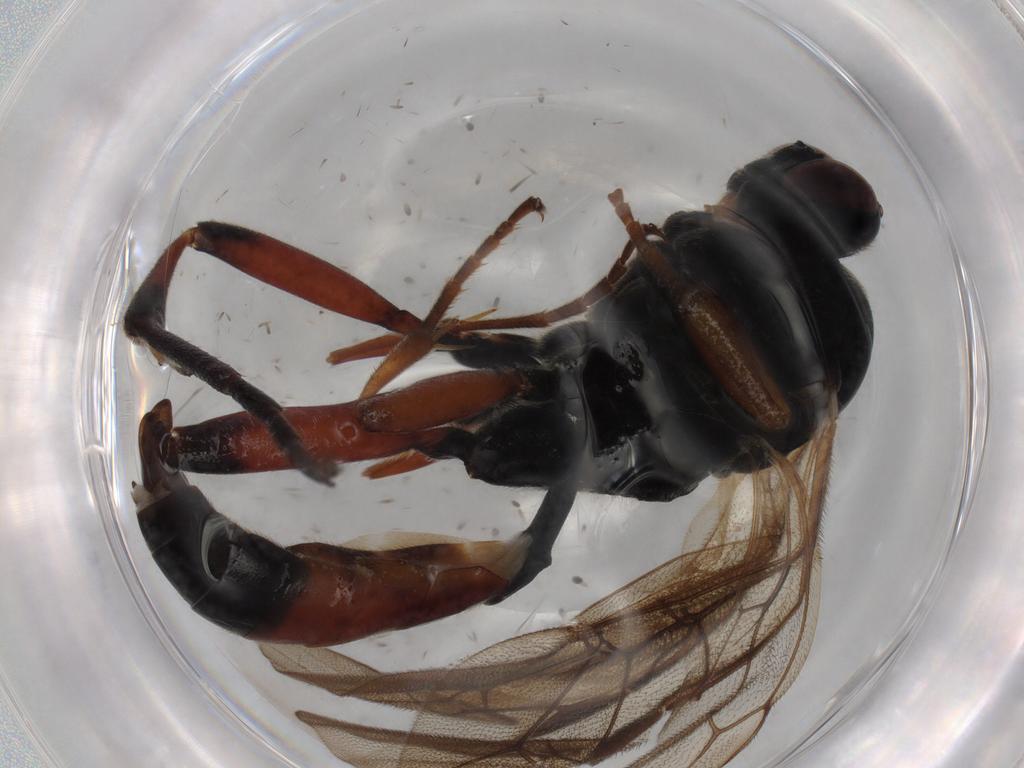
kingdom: Animalia
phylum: Arthropoda
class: Insecta
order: Hymenoptera
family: Ichneumonidae
